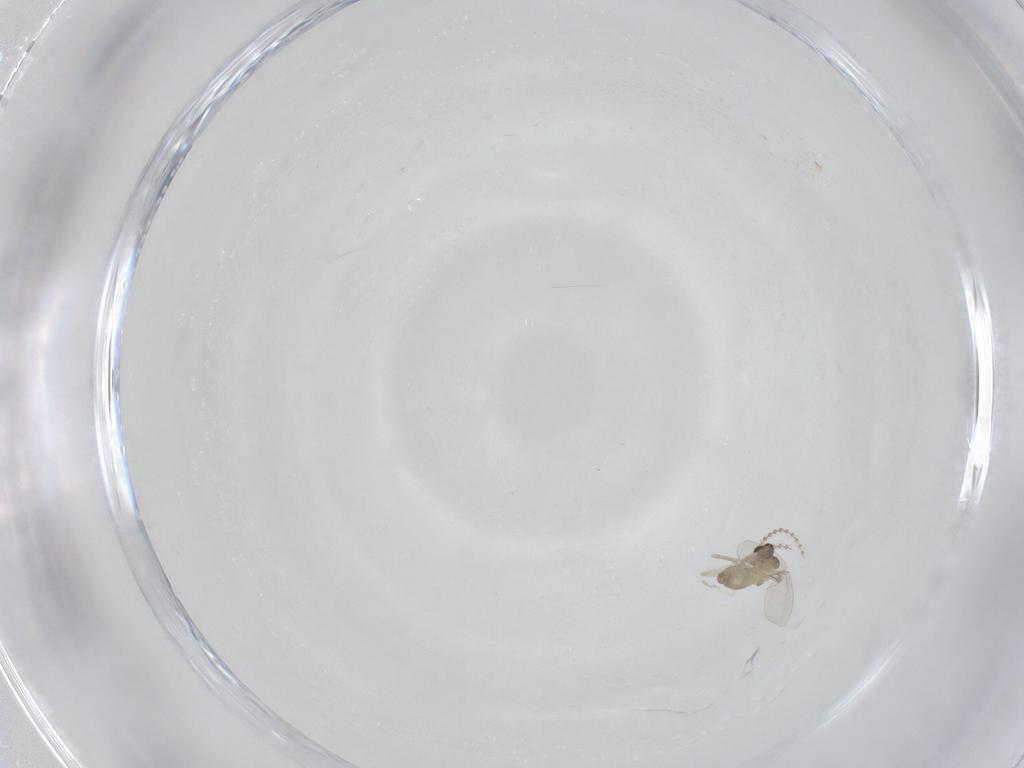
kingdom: Animalia
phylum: Arthropoda
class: Insecta
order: Diptera
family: Cecidomyiidae
